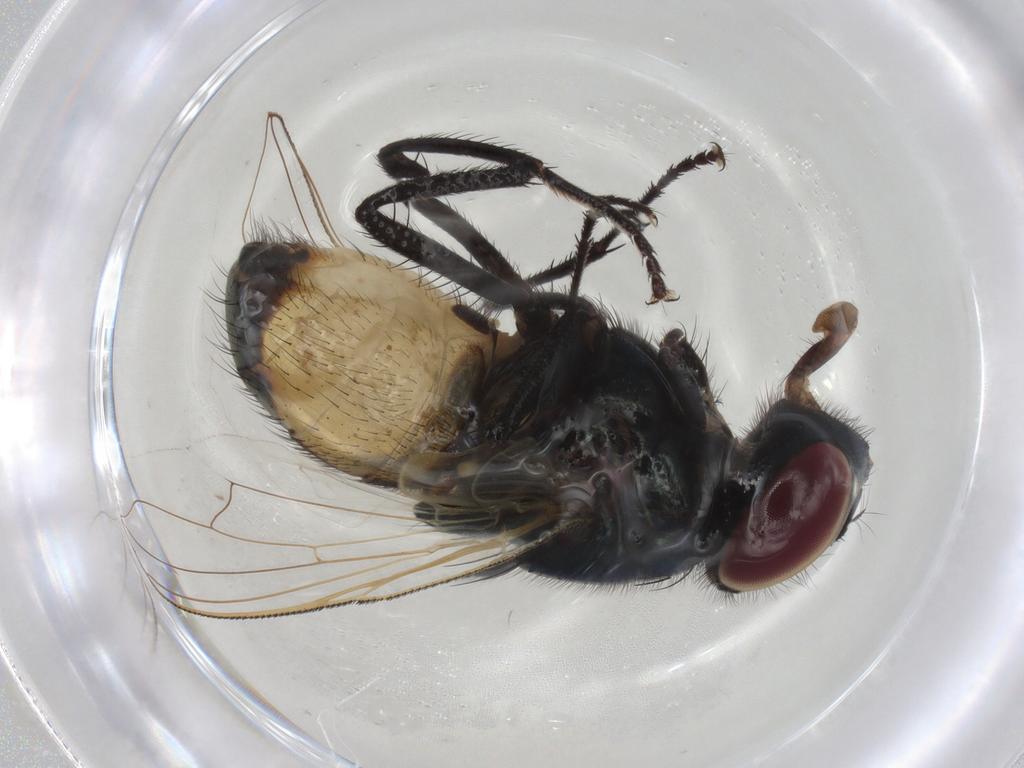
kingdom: Animalia
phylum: Arthropoda
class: Insecta
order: Diptera
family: Heleomyzidae
